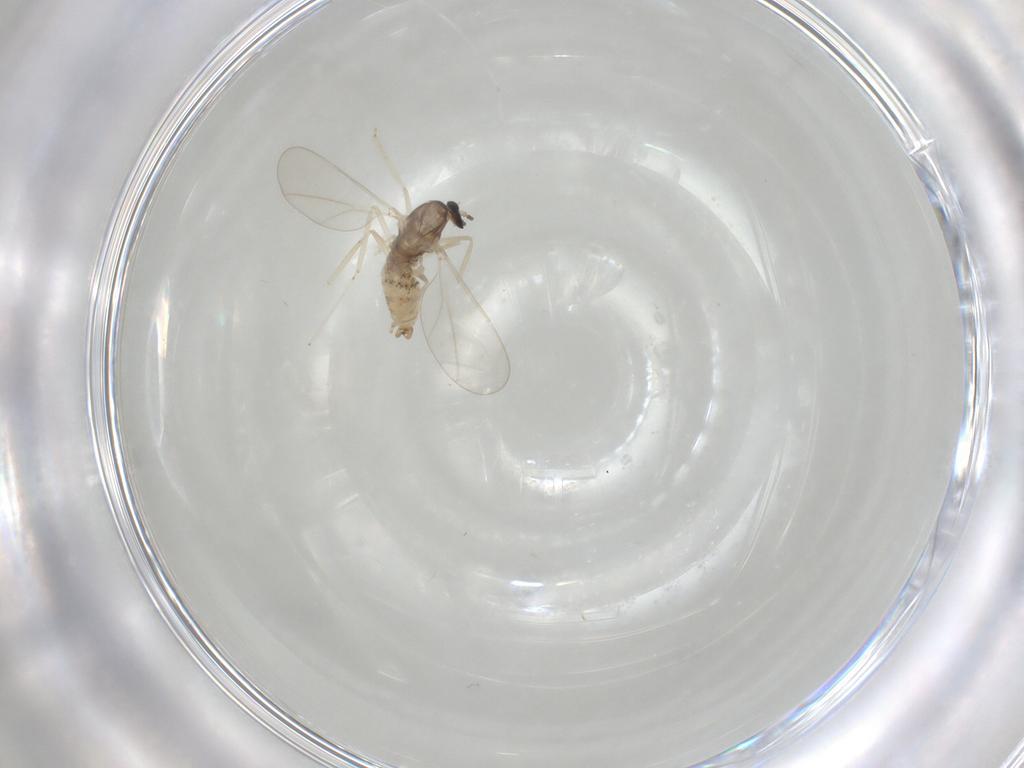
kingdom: Animalia
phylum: Arthropoda
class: Insecta
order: Diptera
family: Cecidomyiidae
